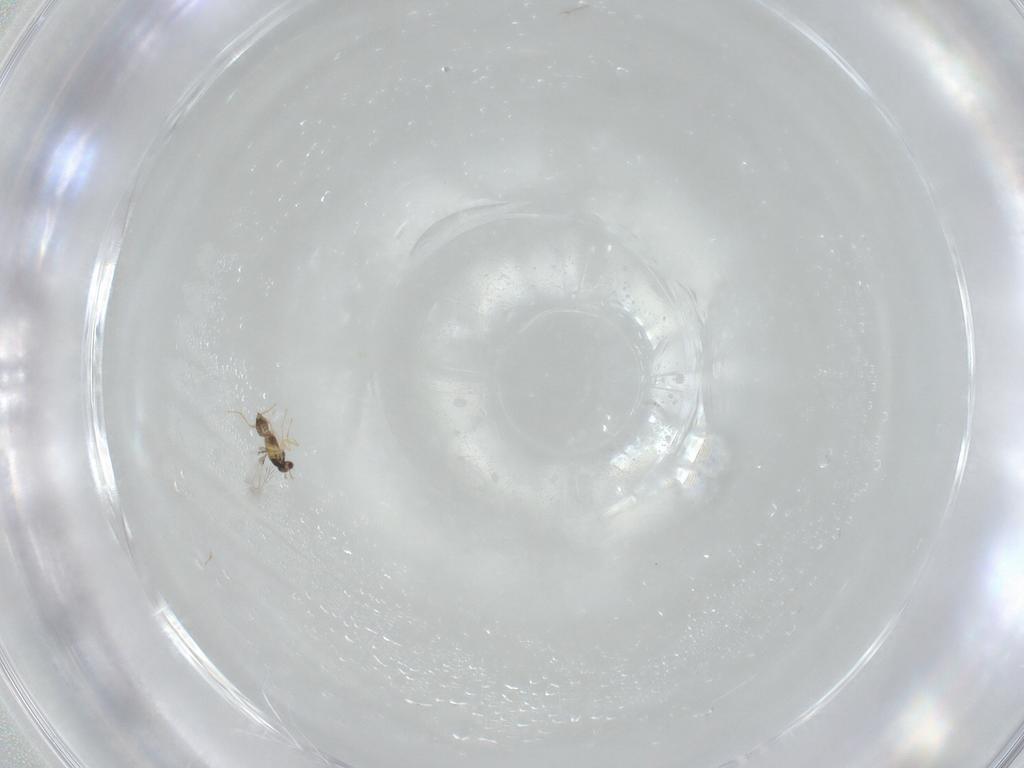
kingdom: Animalia
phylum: Arthropoda
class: Insecta
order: Hymenoptera
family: Mymaridae
